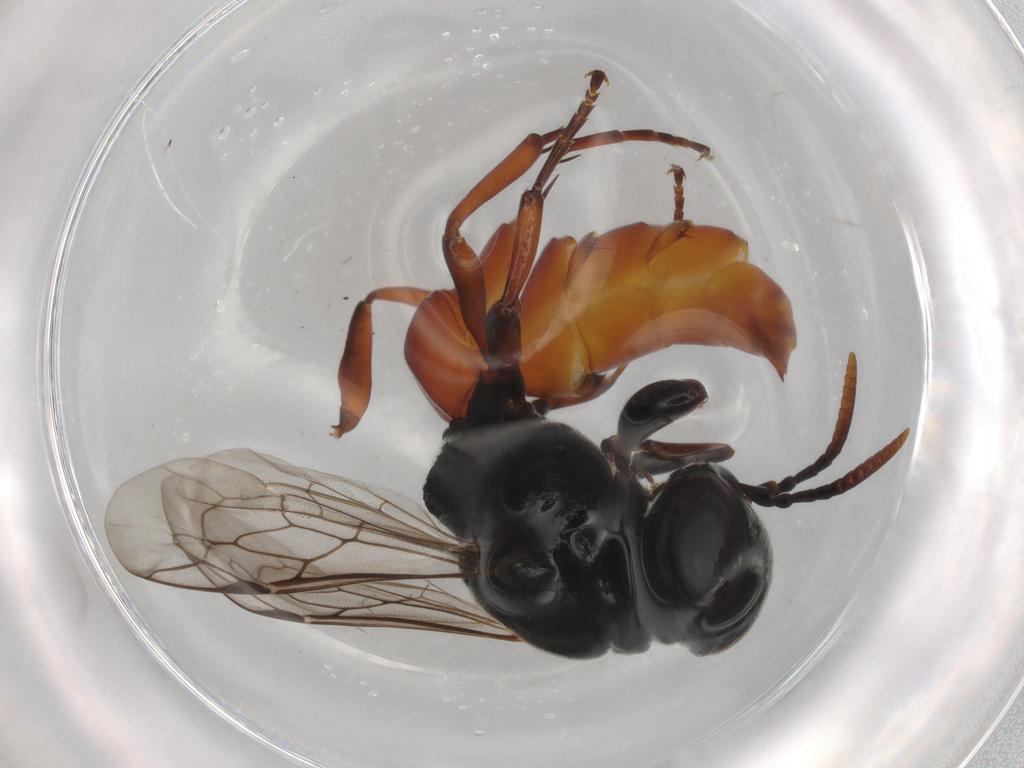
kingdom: Animalia
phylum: Arthropoda
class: Insecta
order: Hymenoptera
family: Crabronidae
